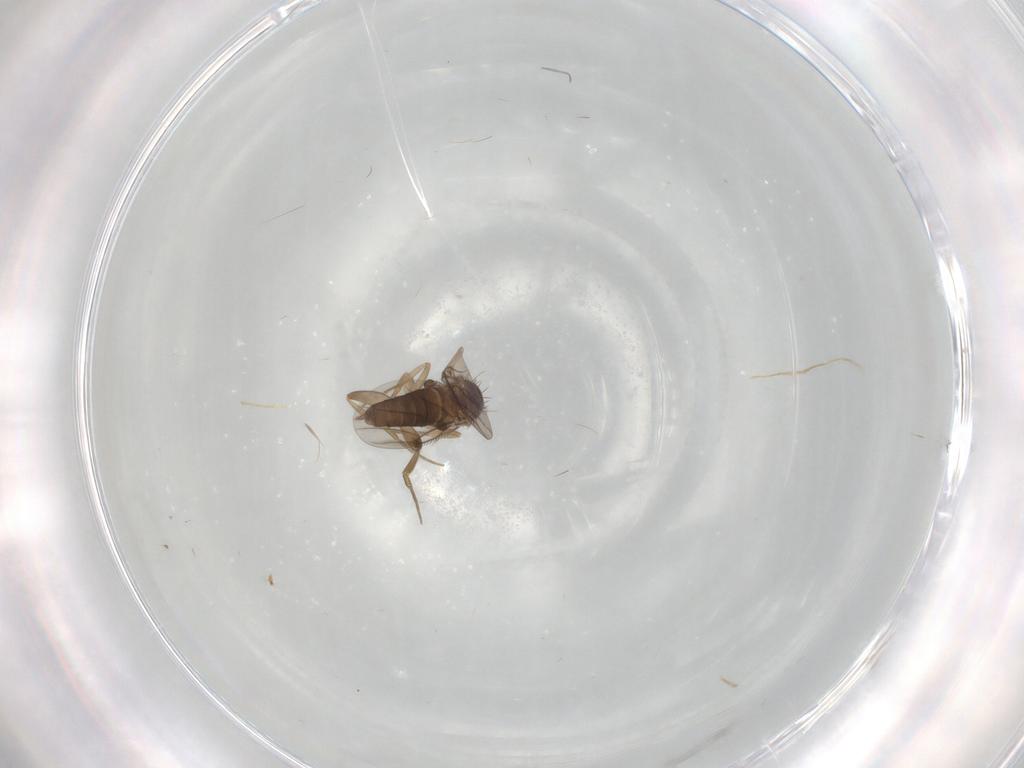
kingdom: Animalia
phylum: Arthropoda
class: Insecta
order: Diptera
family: Phoridae
